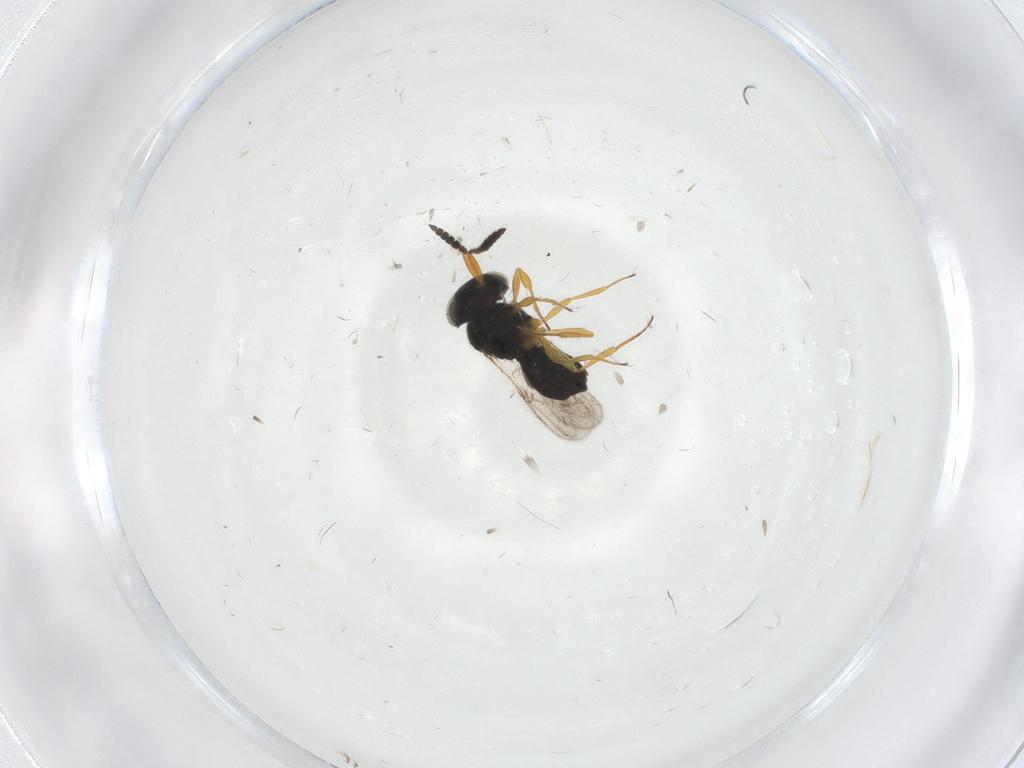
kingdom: Animalia
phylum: Arthropoda
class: Insecta
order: Hymenoptera
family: Scelionidae
